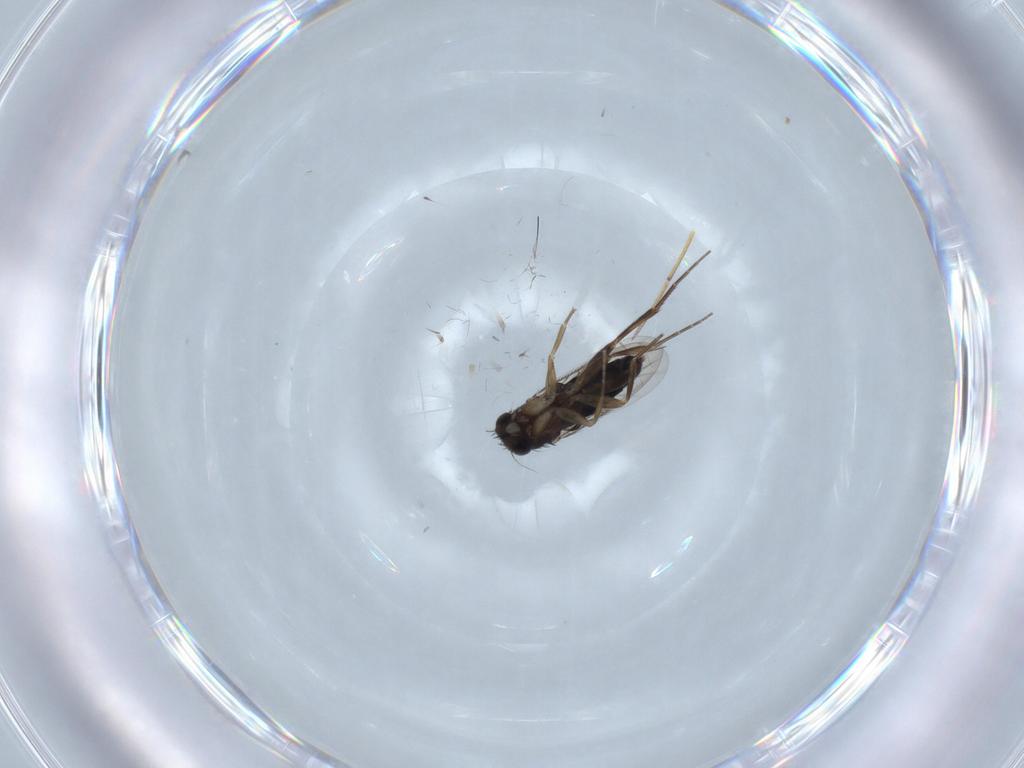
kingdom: Animalia
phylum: Arthropoda
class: Insecta
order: Diptera
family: Phoridae
